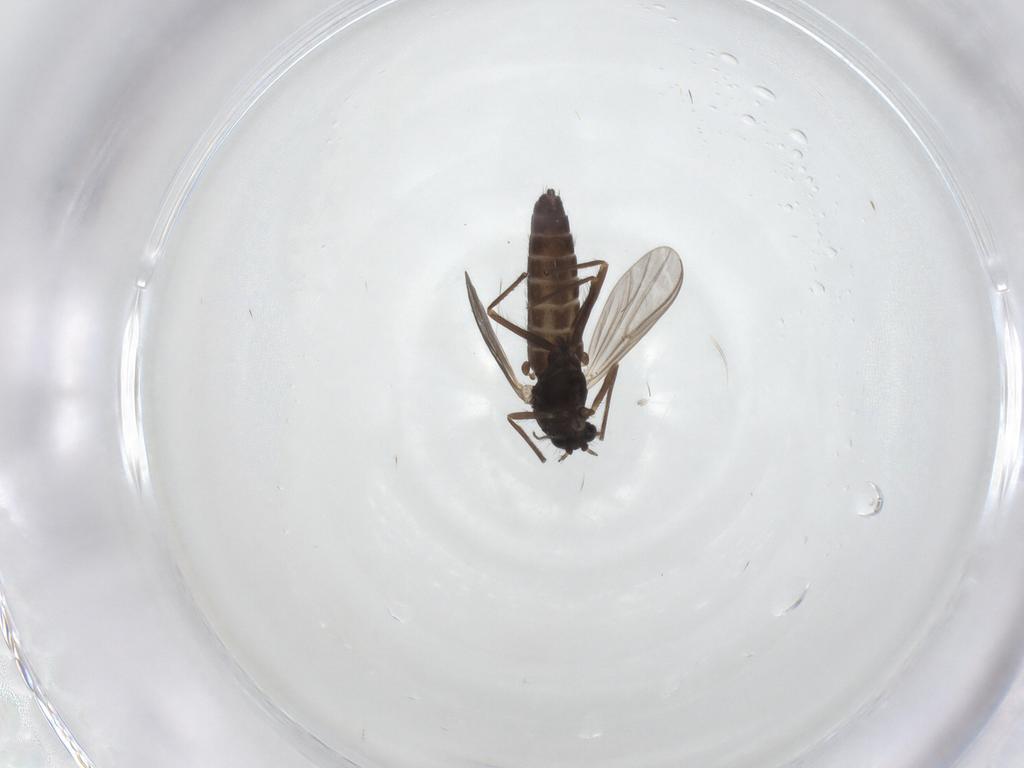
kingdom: Animalia
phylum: Arthropoda
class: Insecta
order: Diptera
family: Chironomidae
